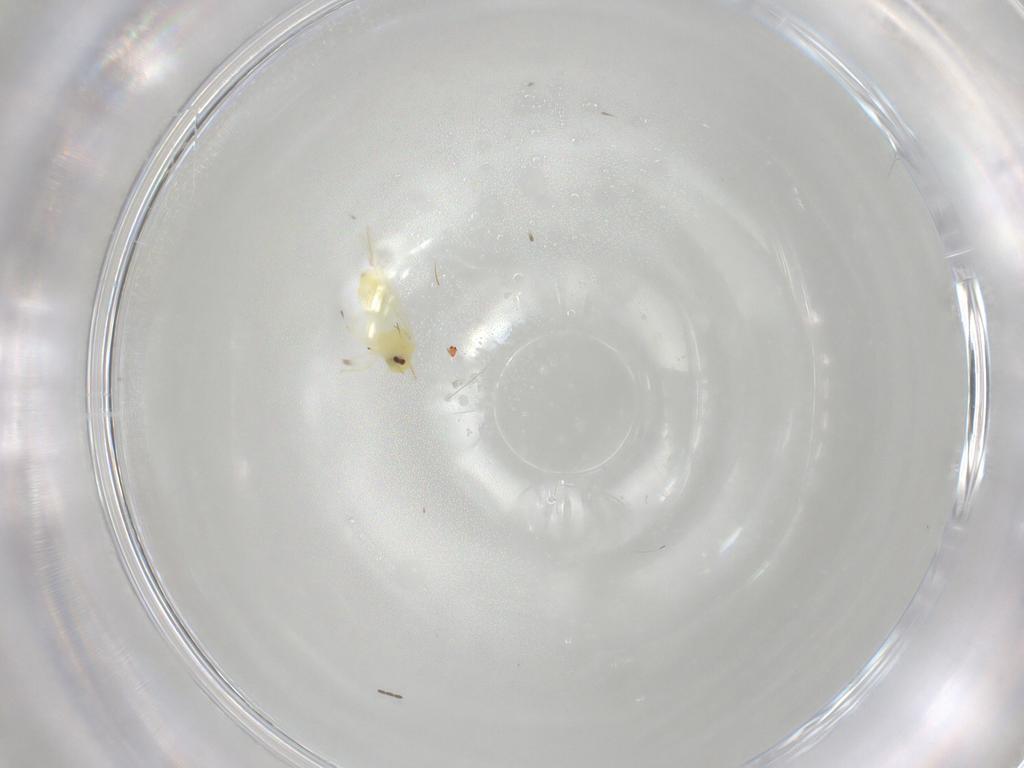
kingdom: Animalia
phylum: Arthropoda
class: Insecta
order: Hemiptera
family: Aleyrodidae
